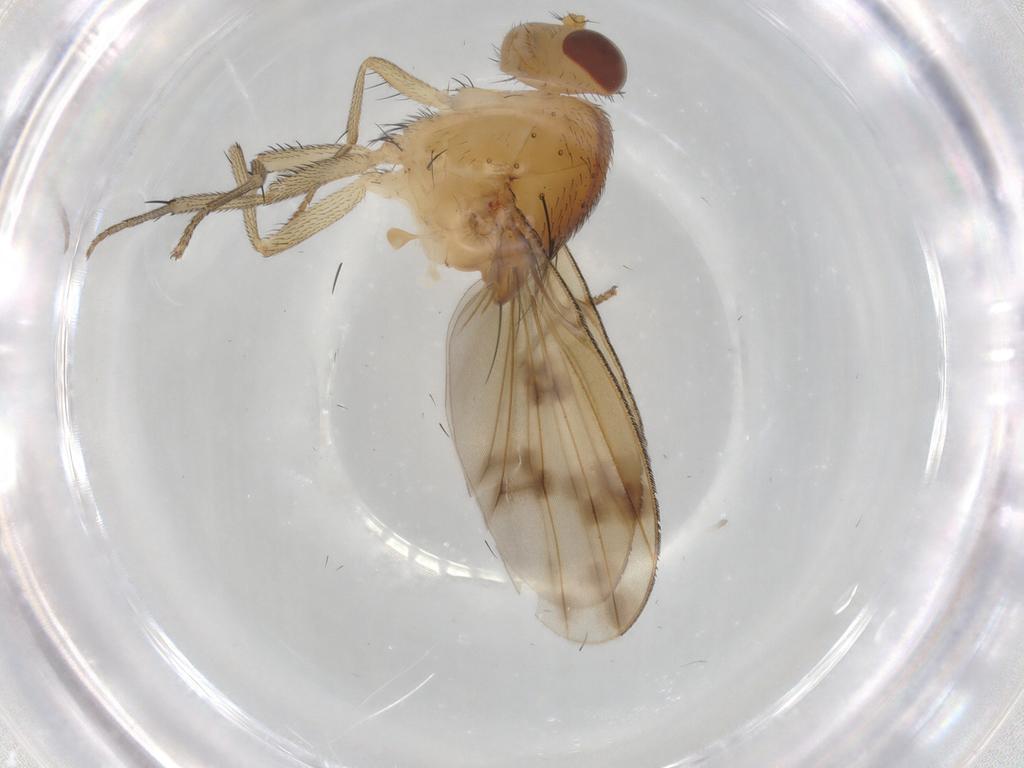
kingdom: Animalia
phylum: Arthropoda
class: Insecta
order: Diptera
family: Lauxaniidae
